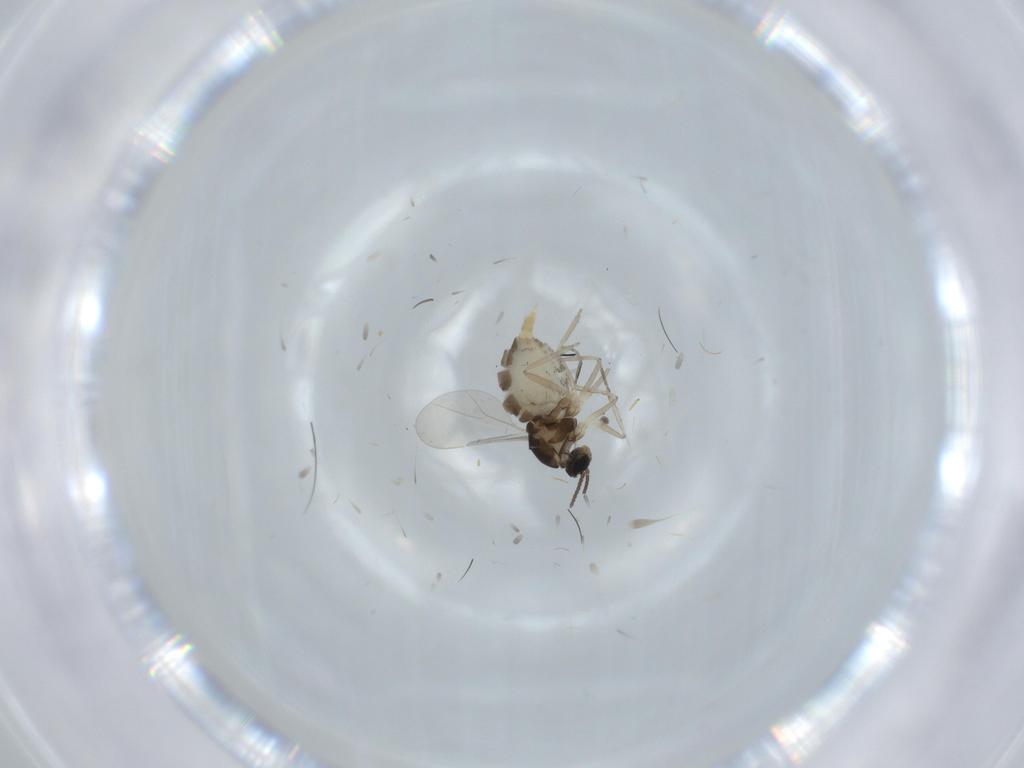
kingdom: Animalia
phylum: Arthropoda
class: Insecta
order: Diptera
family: Cecidomyiidae
